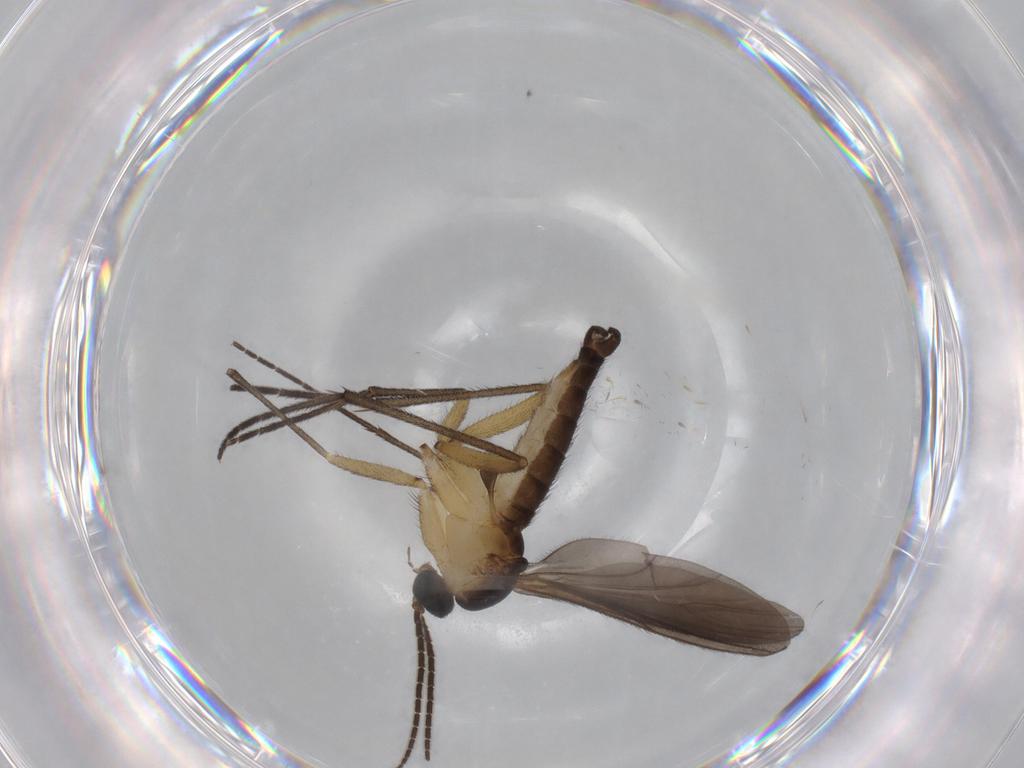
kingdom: Animalia
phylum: Arthropoda
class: Insecta
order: Diptera
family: Sciaridae
